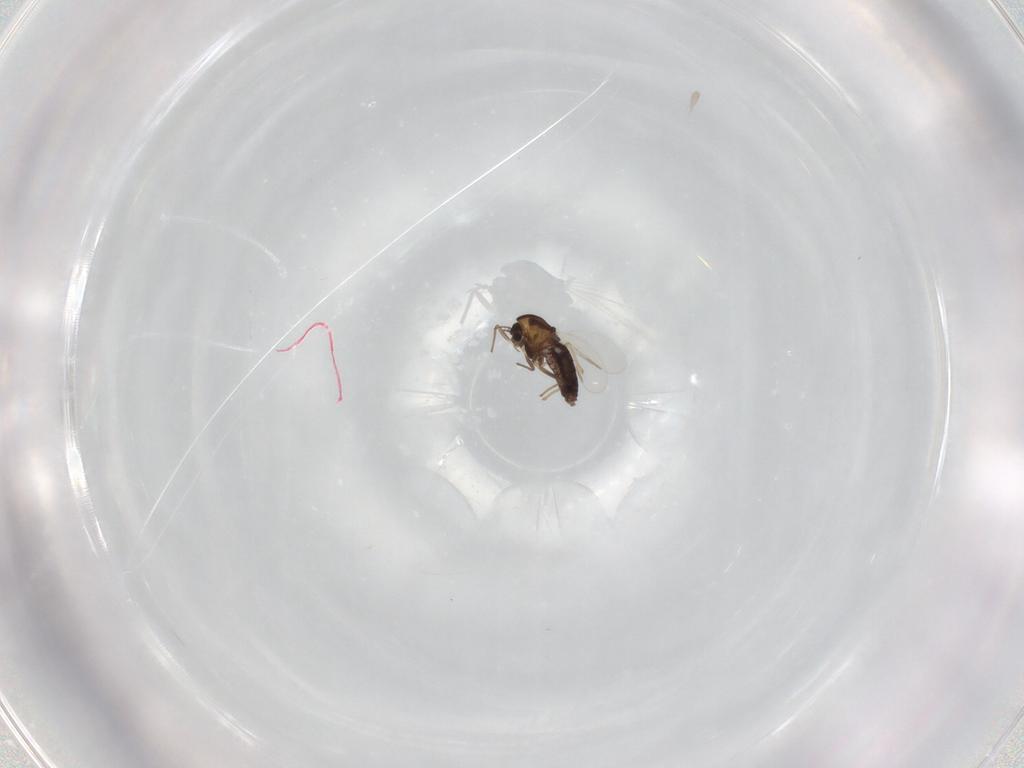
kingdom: Animalia
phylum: Arthropoda
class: Insecta
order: Diptera
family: Chironomidae
